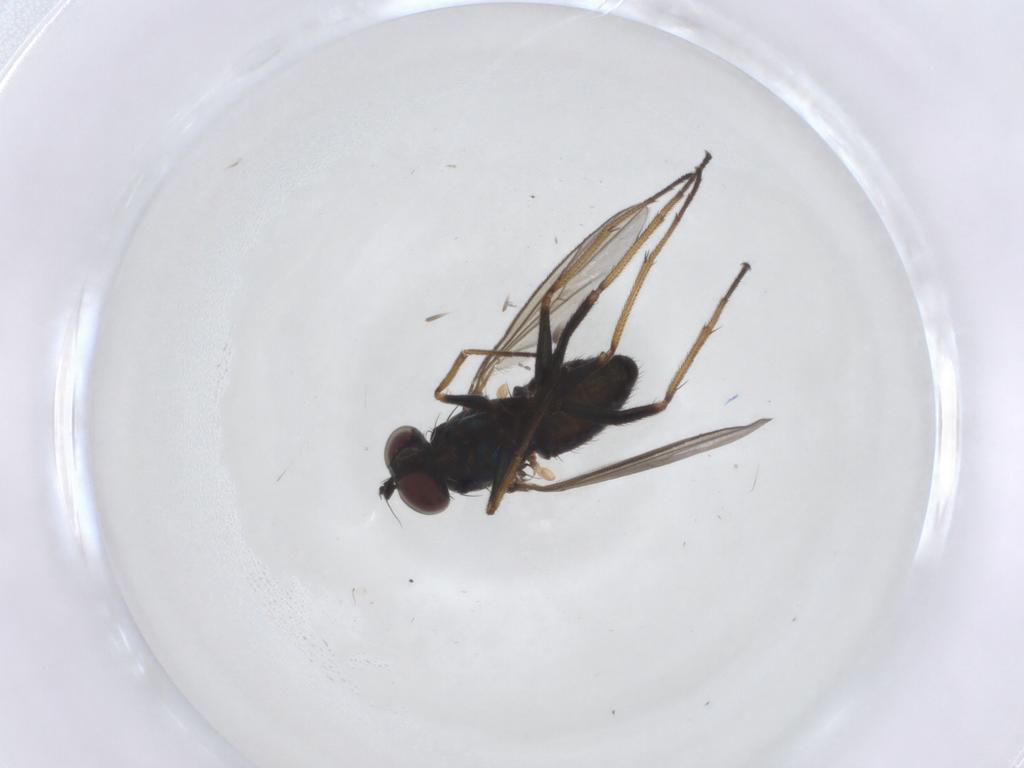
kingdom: Animalia
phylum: Arthropoda
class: Insecta
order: Diptera
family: Dolichopodidae
